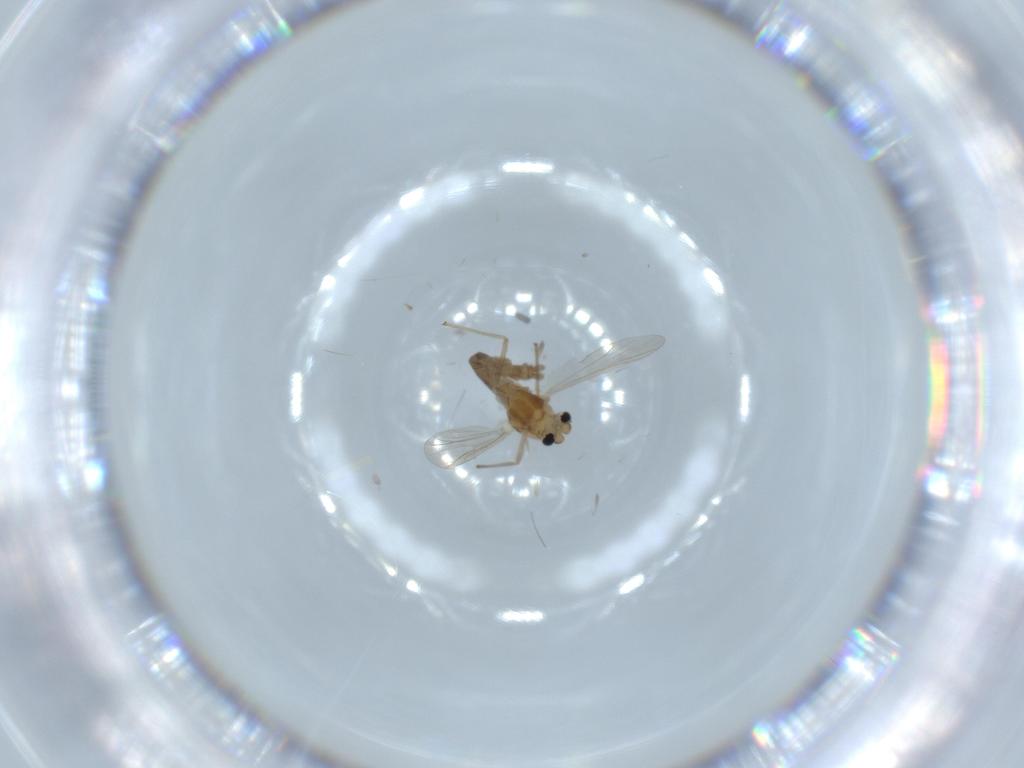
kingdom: Animalia
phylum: Arthropoda
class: Insecta
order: Diptera
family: Chironomidae
